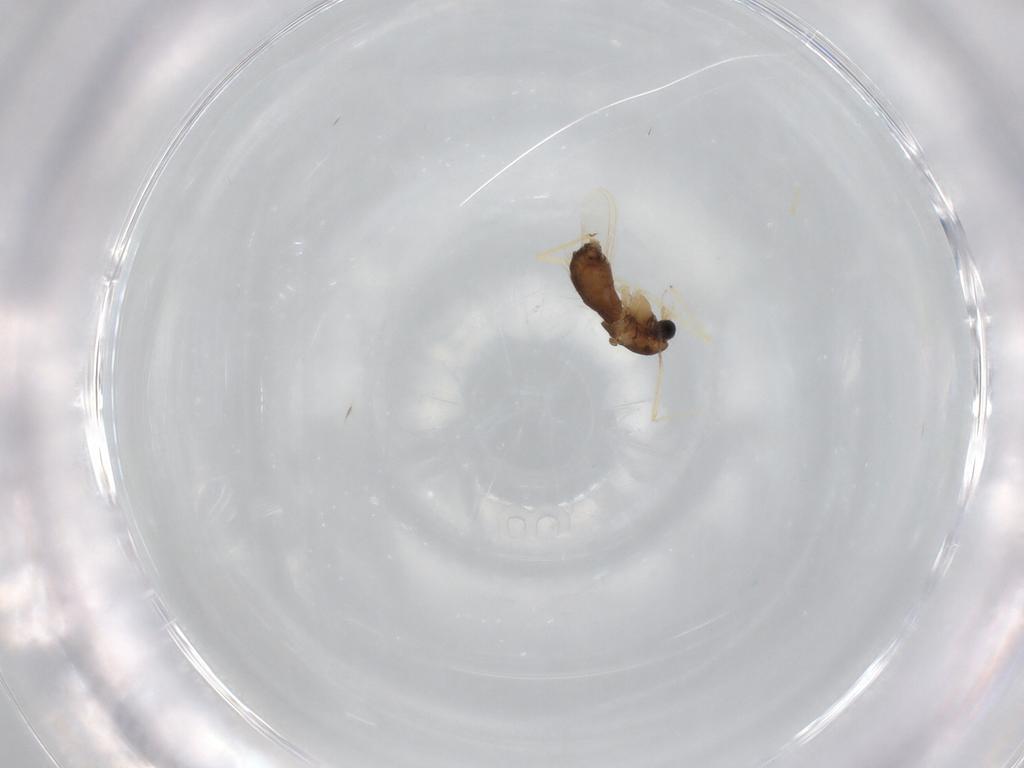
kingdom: Animalia
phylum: Arthropoda
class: Insecta
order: Diptera
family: Chironomidae
